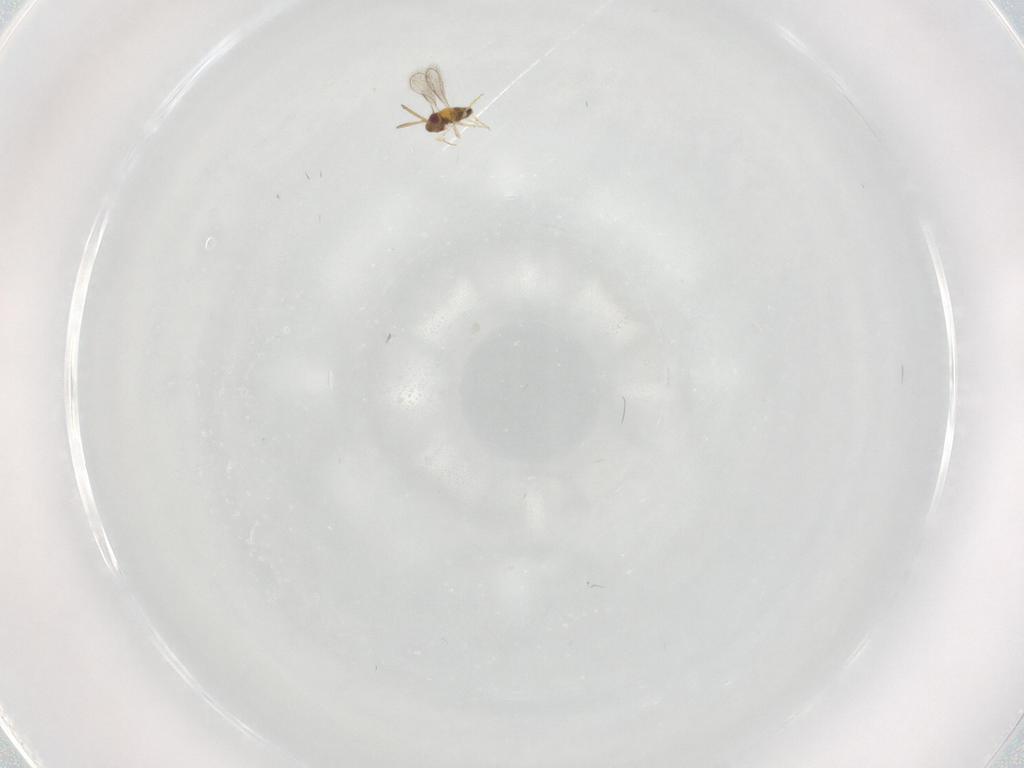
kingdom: Animalia
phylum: Arthropoda
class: Insecta
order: Hymenoptera
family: Aphelinidae
